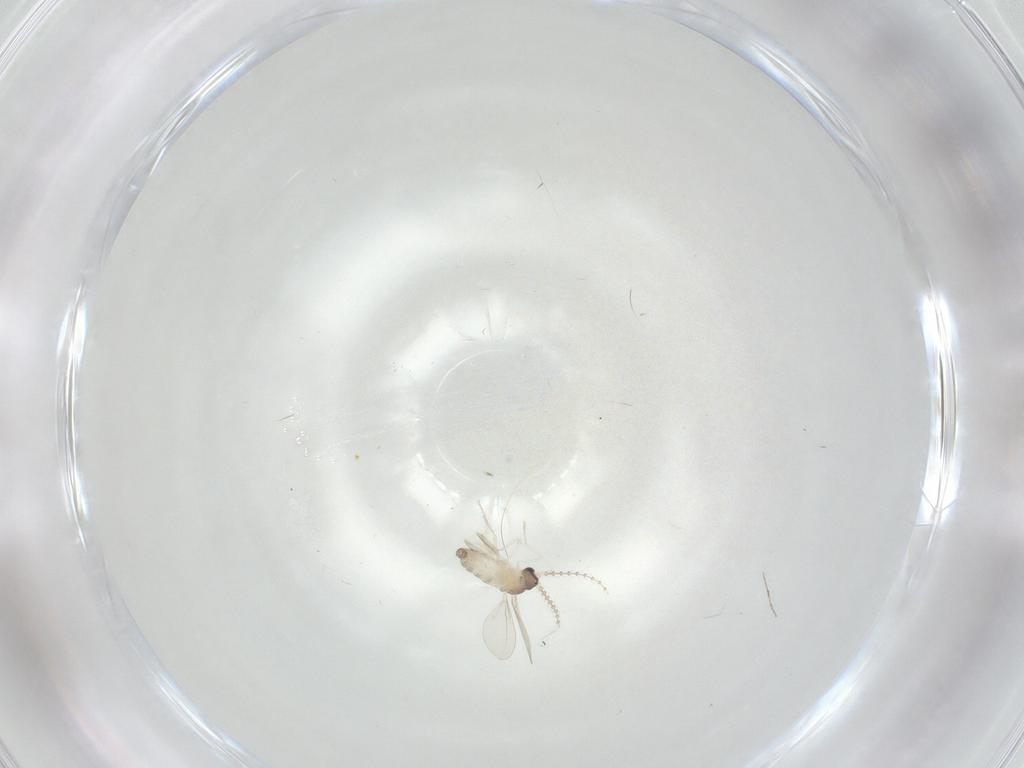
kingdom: Animalia
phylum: Arthropoda
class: Insecta
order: Diptera
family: Cecidomyiidae
